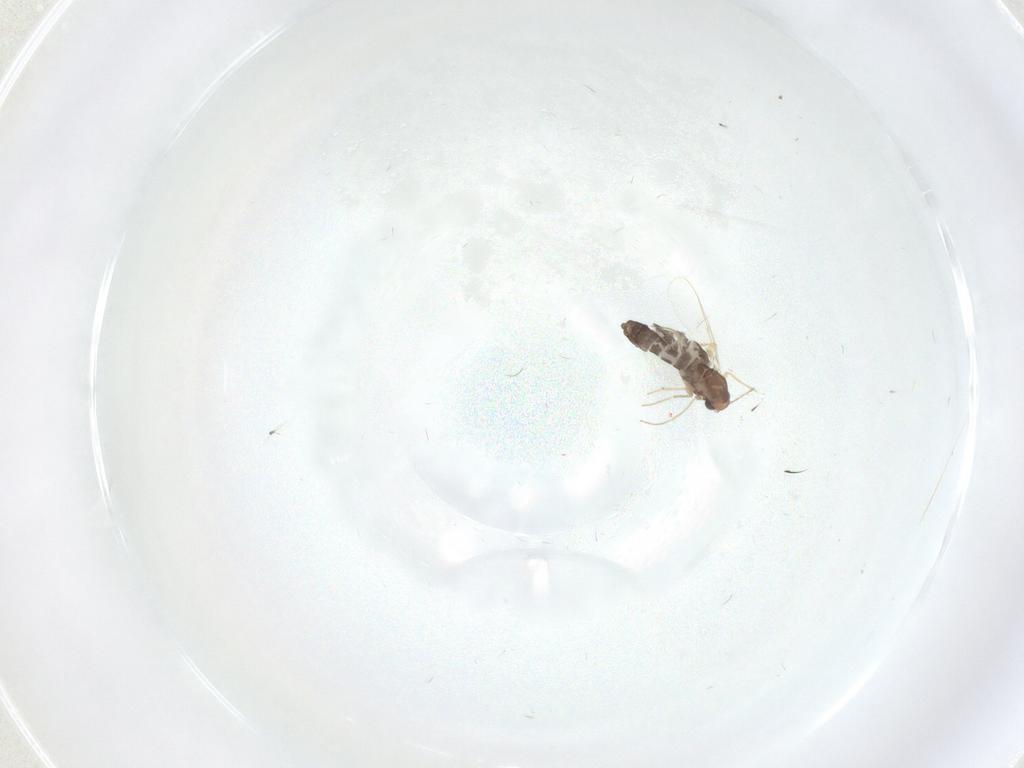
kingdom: Animalia
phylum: Arthropoda
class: Insecta
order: Diptera
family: Chironomidae
